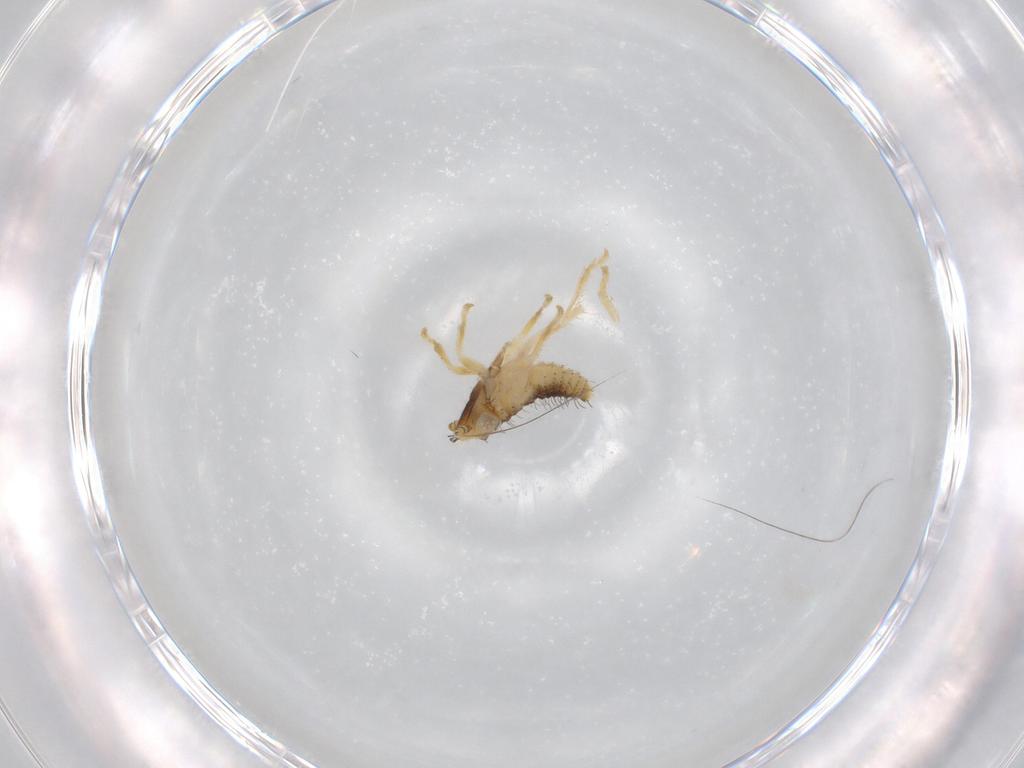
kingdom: Animalia
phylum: Arthropoda
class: Insecta
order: Hemiptera
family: Cicadellidae
